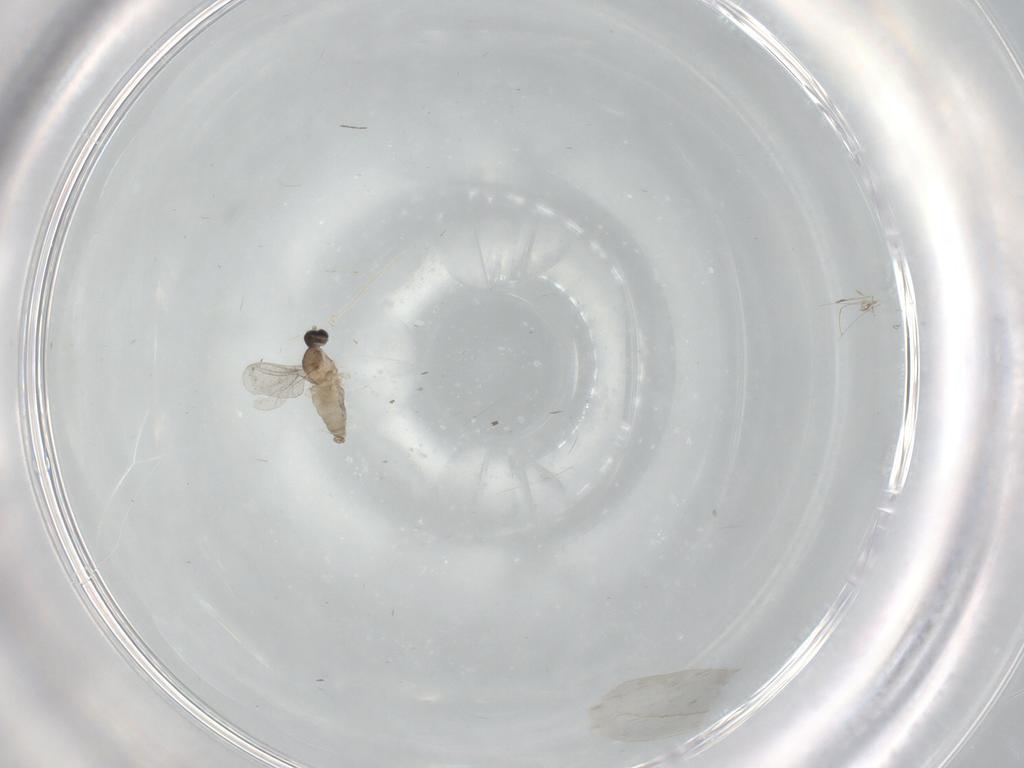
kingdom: Animalia
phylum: Arthropoda
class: Insecta
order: Diptera
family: Cecidomyiidae
